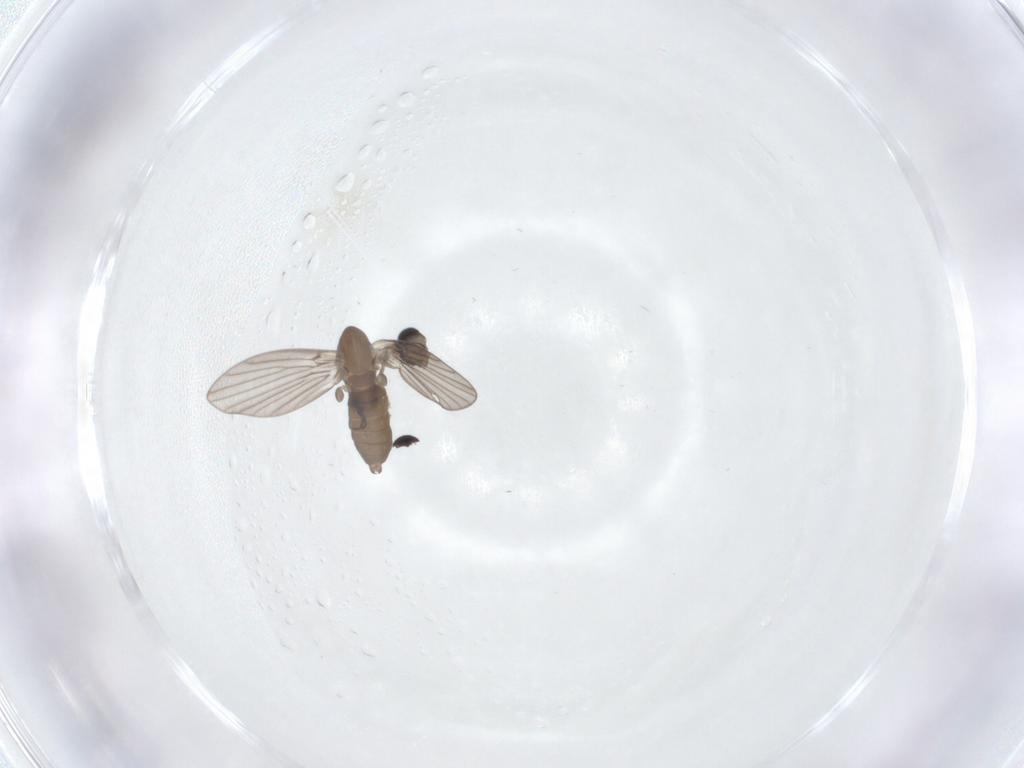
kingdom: Animalia
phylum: Arthropoda
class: Insecta
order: Diptera
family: Psychodidae
